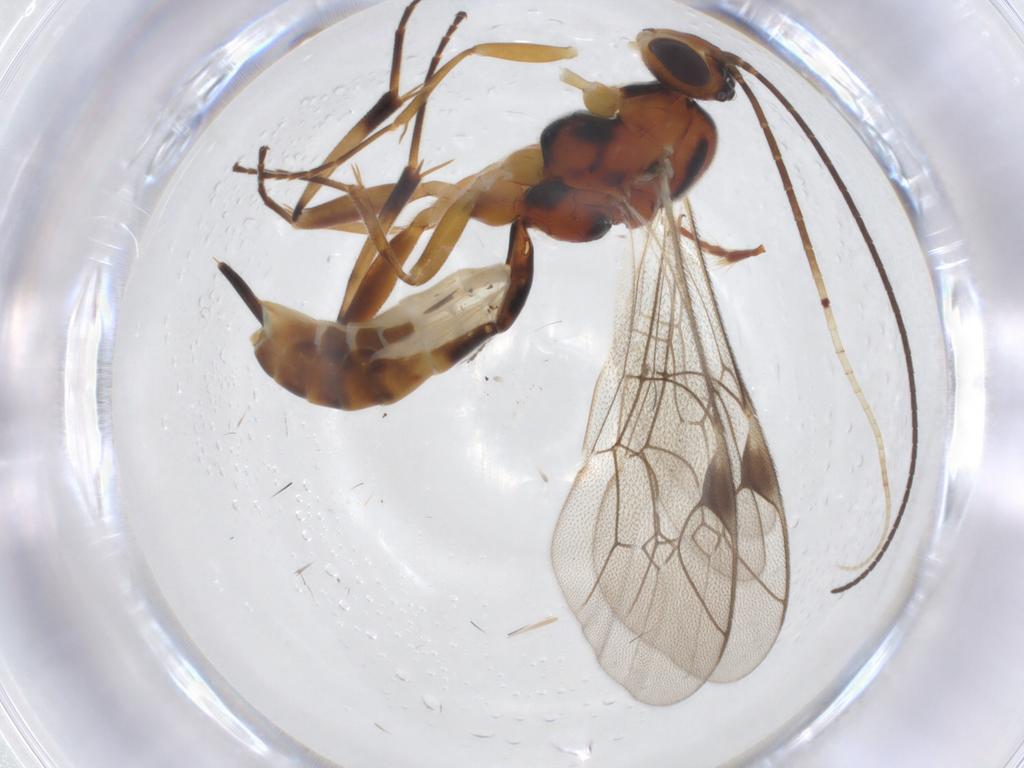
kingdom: Animalia
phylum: Arthropoda
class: Insecta
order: Hymenoptera
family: Ichneumonidae
